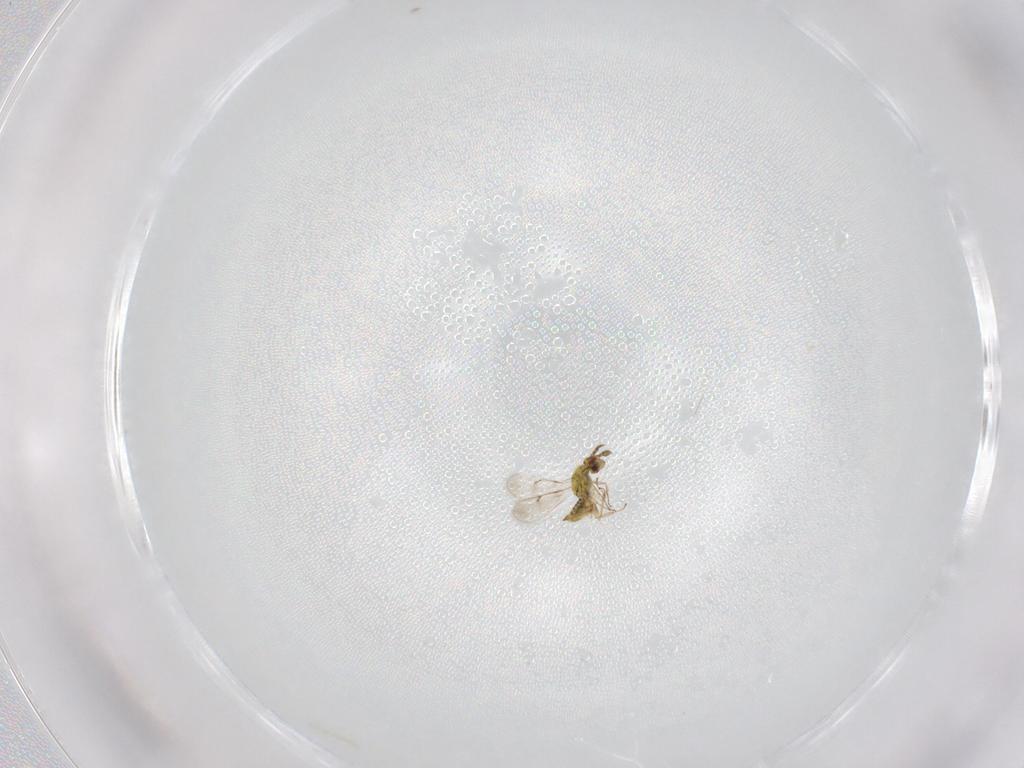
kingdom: Animalia
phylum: Arthropoda
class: Insecta
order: Hymenoptera
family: Eulophidae
